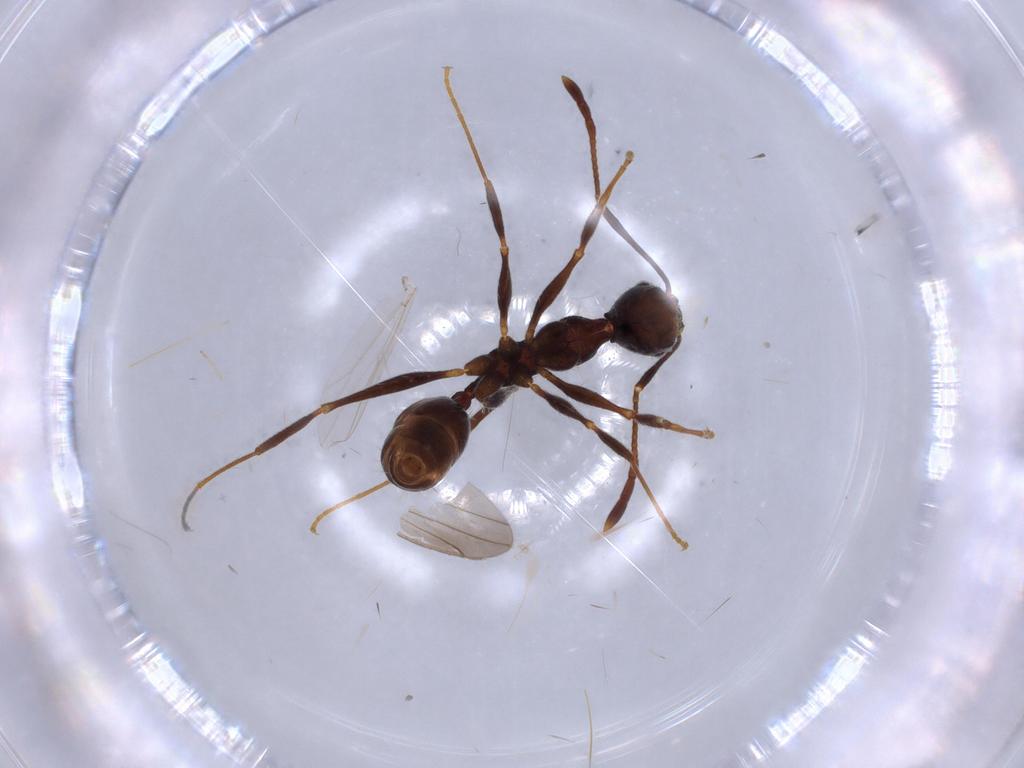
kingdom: Animalia
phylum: Arthropoda
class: Insecta
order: Hymenoptera
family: Formicidae
